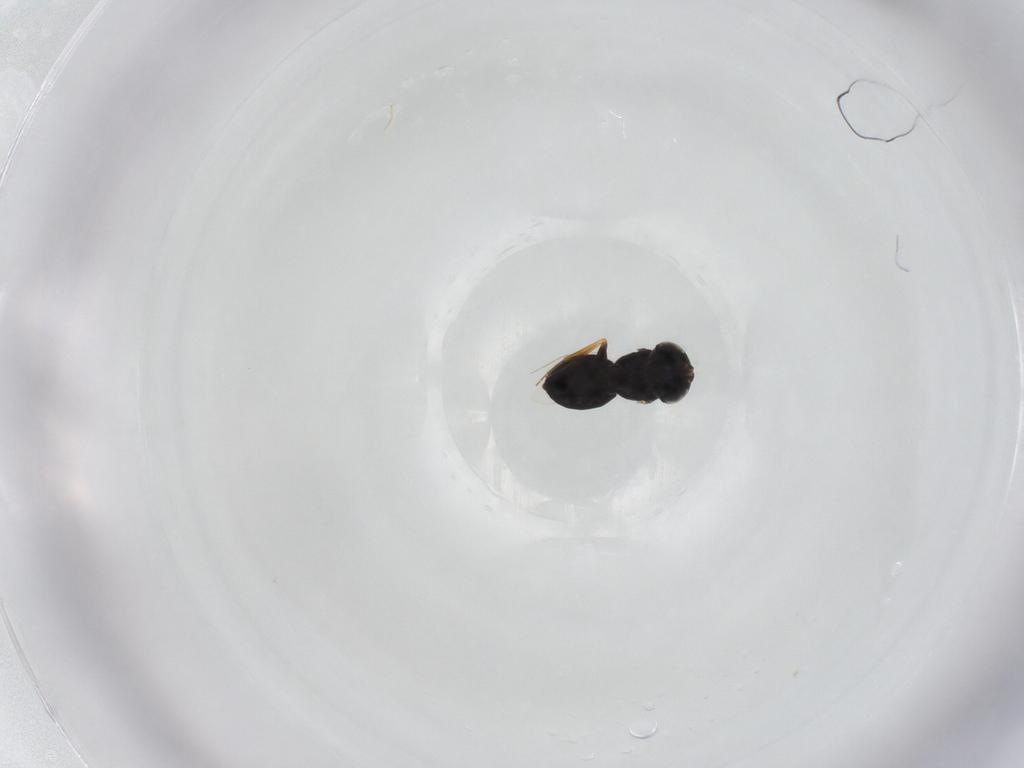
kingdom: Animalia
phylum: Arthropoda
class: Insecta
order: Hymenoptera
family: Scelionidae
